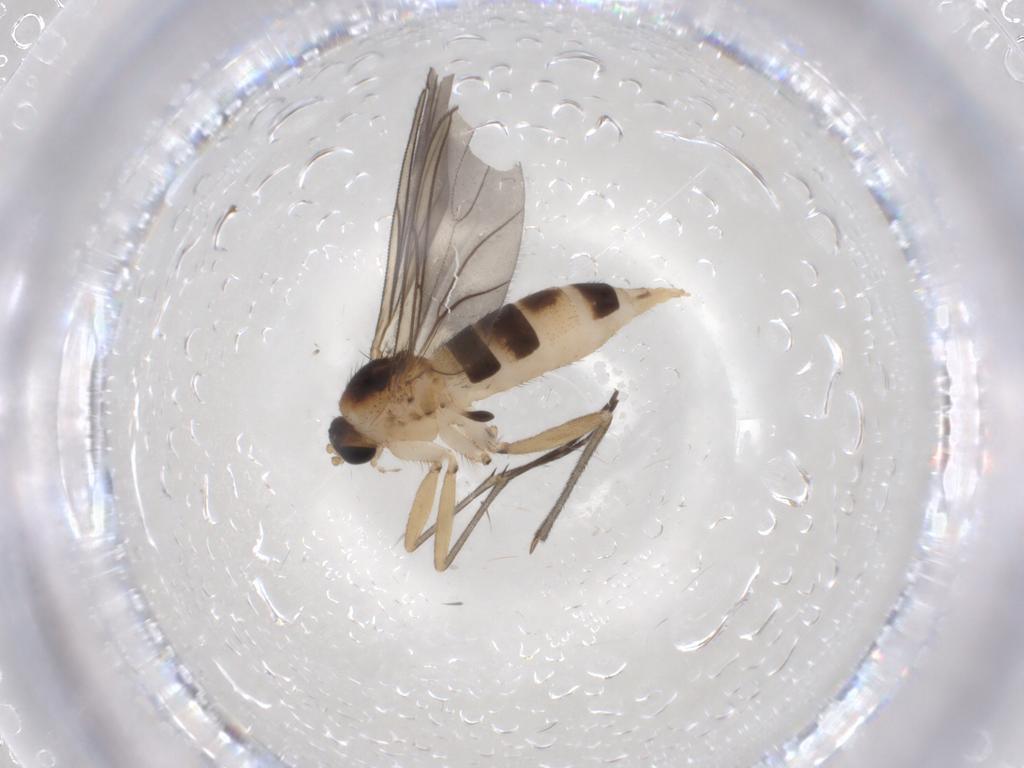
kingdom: Animalia
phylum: Arthropoda
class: Insecta
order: Diptera
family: Sciaridae
